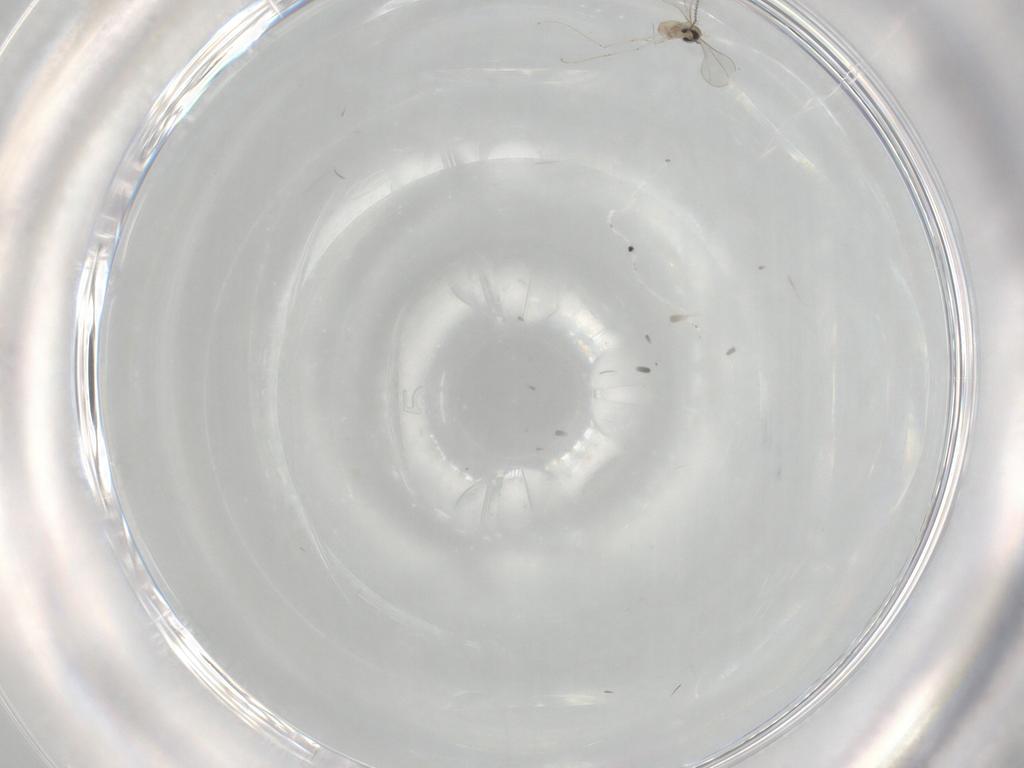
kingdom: Animalia
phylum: Arthropoda
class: Insecta
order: Diptera
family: Cecidomyiidae
